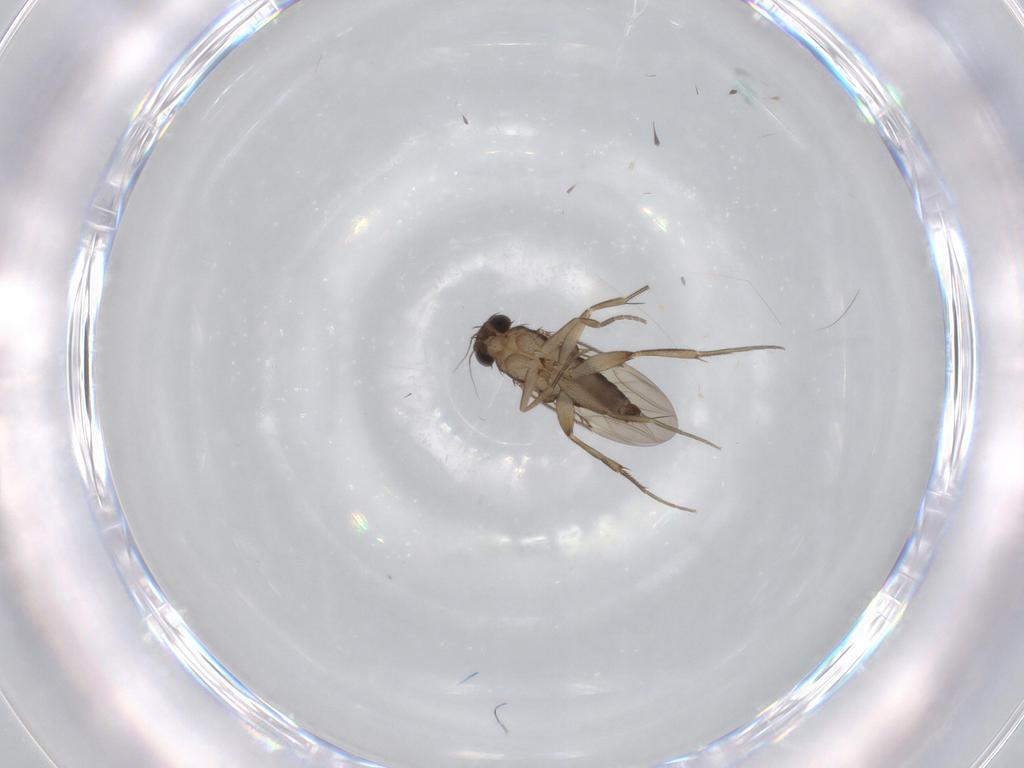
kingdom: Animalia
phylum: Arthropoda
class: Insecta
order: Diptera
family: Phoridae
